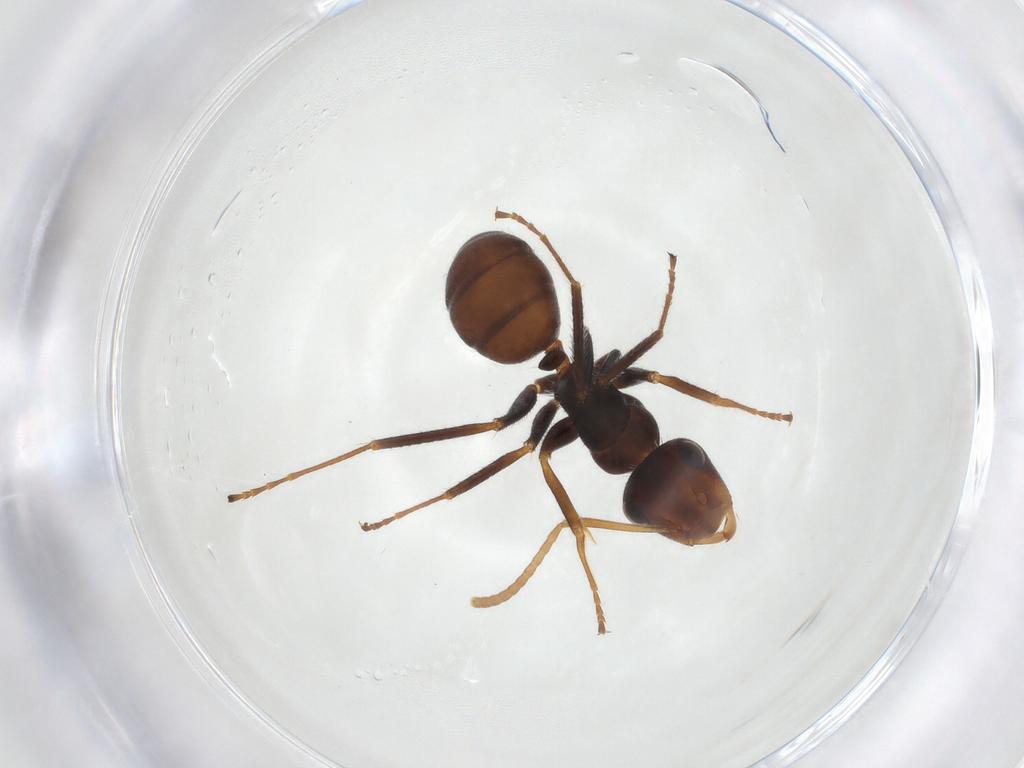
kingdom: Animalia
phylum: Arthropoda
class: Insecta
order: Hymenoptera
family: Formicidae
